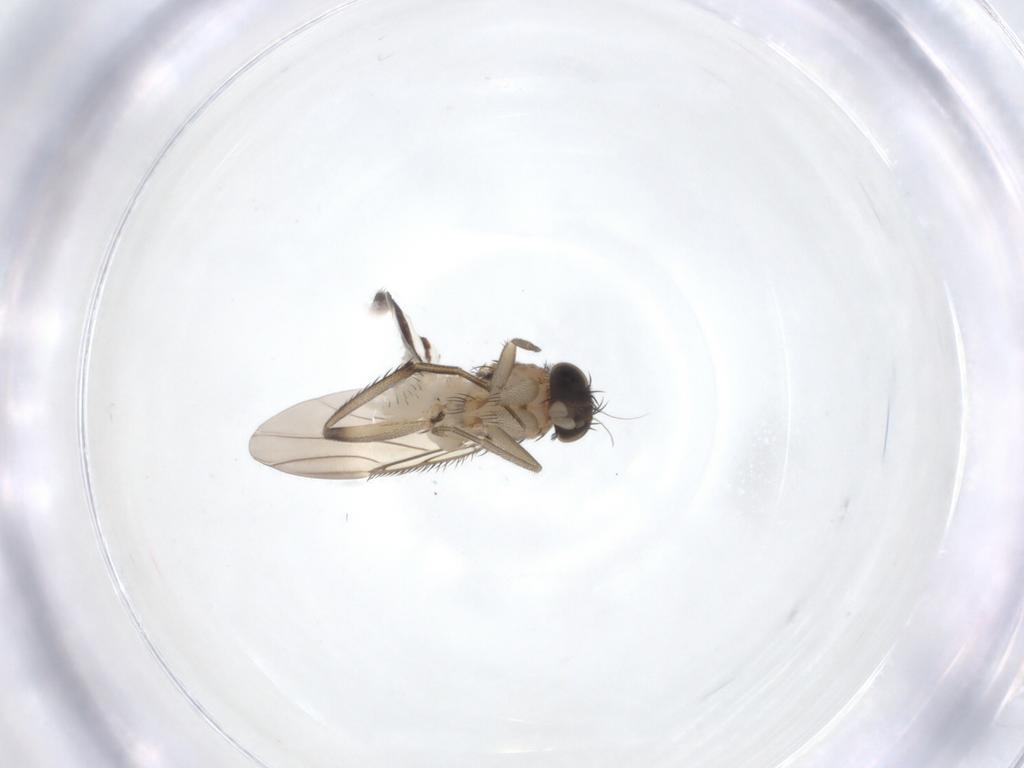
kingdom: Animalia
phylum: Arthropoda
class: Insecta
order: Diptera
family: Phoridae
